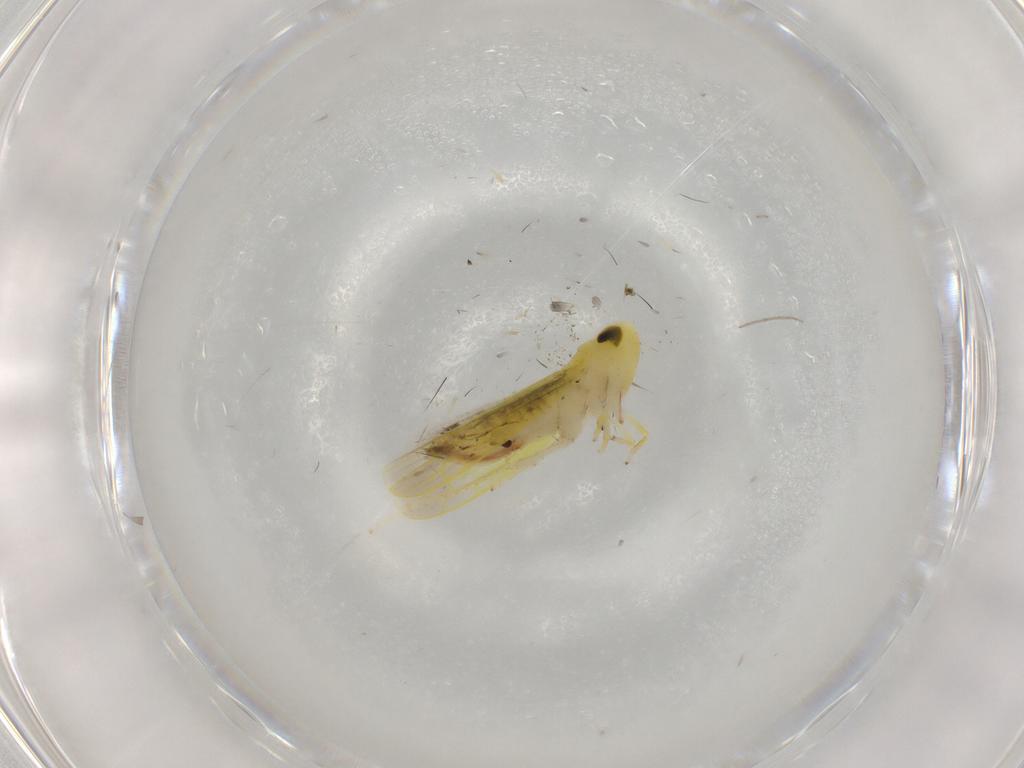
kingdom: Animalia
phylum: Arthropoda
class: Insecta
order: Hemiptera
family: Cicadellidae
